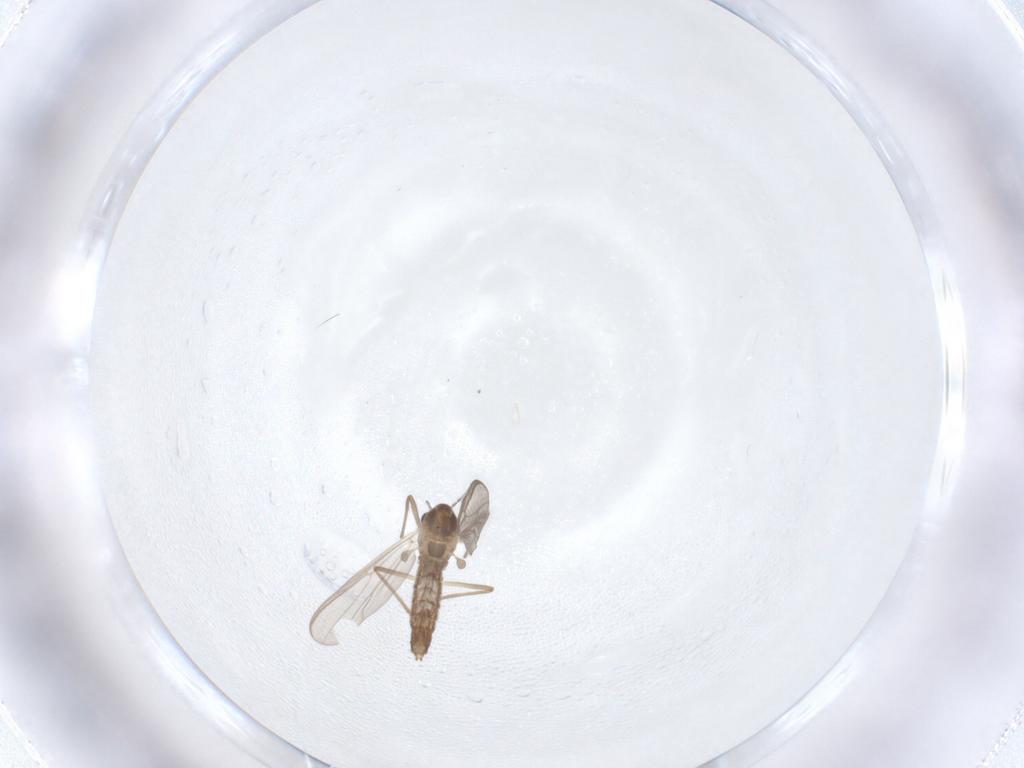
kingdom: Animalia
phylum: Arthropoda
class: Insecta
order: Diptera
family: Chironomidae
